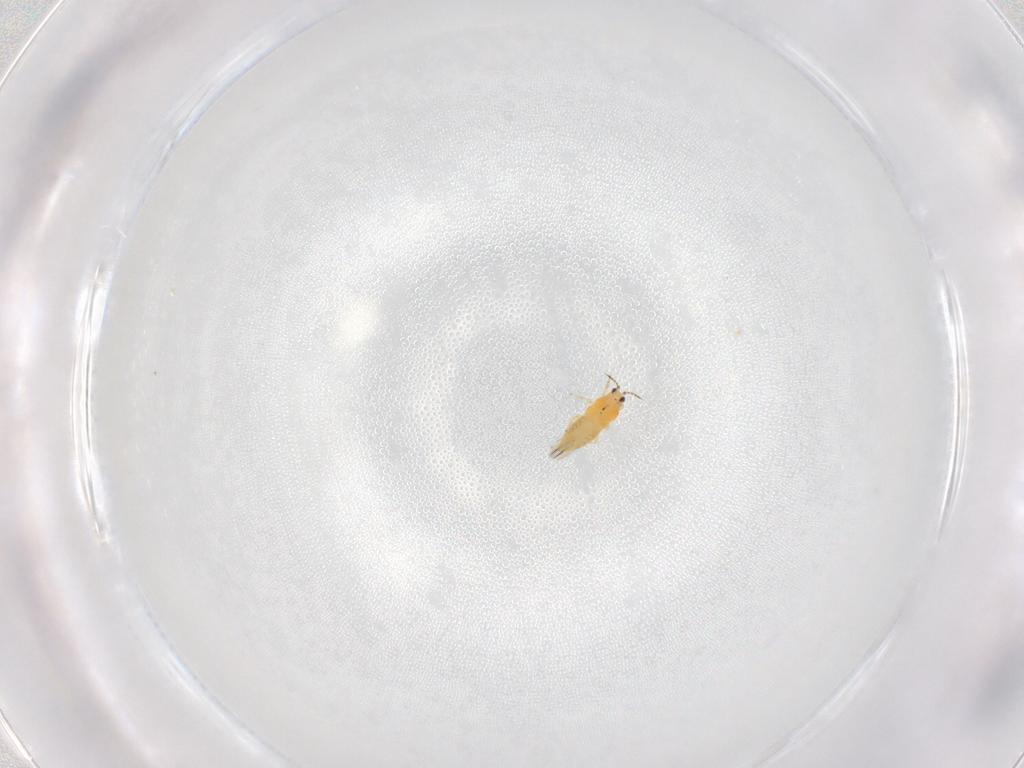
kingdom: Animalia
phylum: Arthropoda
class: Insecta
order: Thysanoptera
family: Thripidae
